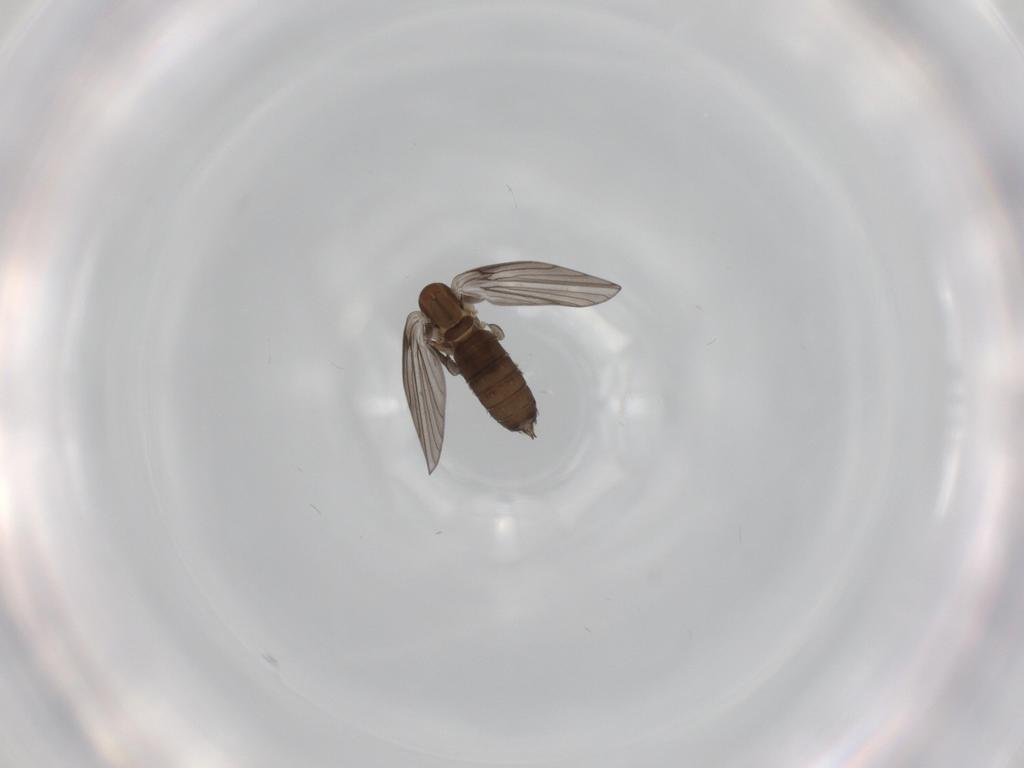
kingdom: Animalia
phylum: Arthropoda
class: Insecta
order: Diptera
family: Psychodidae
